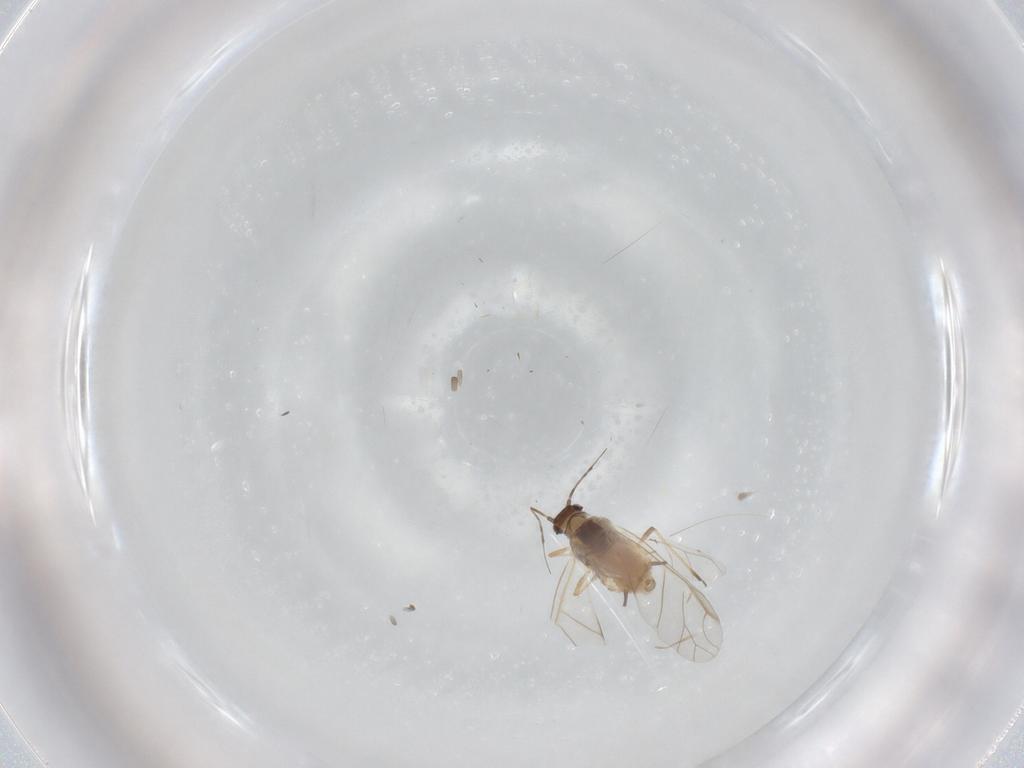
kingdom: Animalia
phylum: Arthropoda
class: Insecta
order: Hemiptera
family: Aphididae
